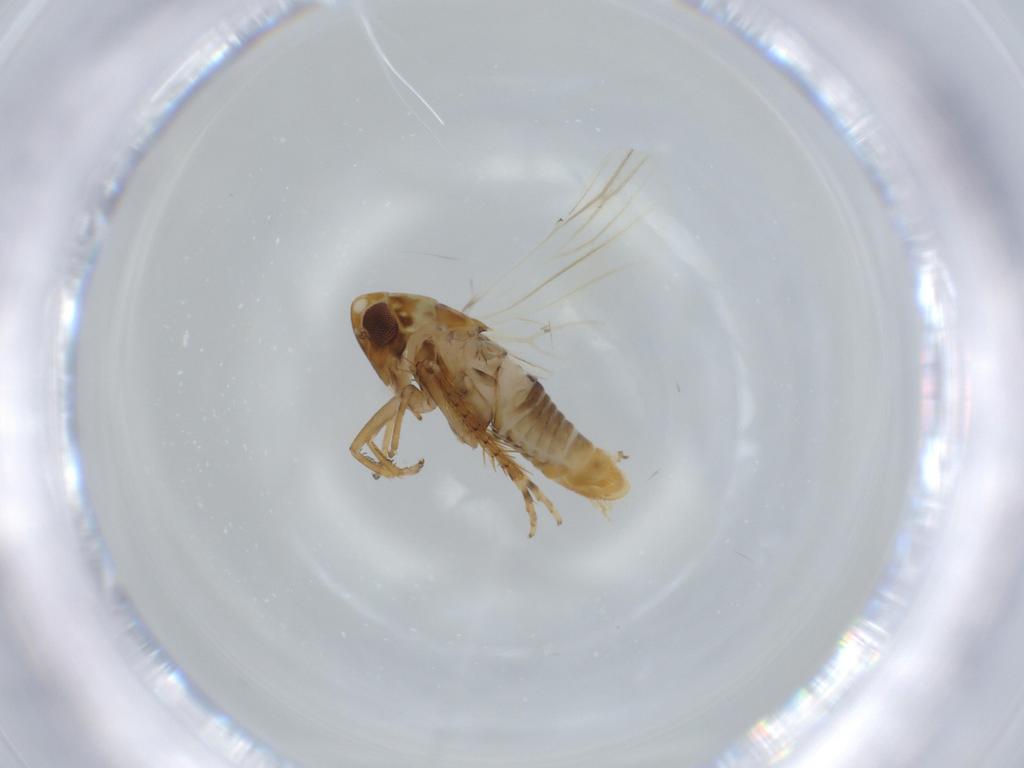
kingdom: Animalia
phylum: Arthropoda
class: Insecta
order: Hemiptera
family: Cicadellidae
